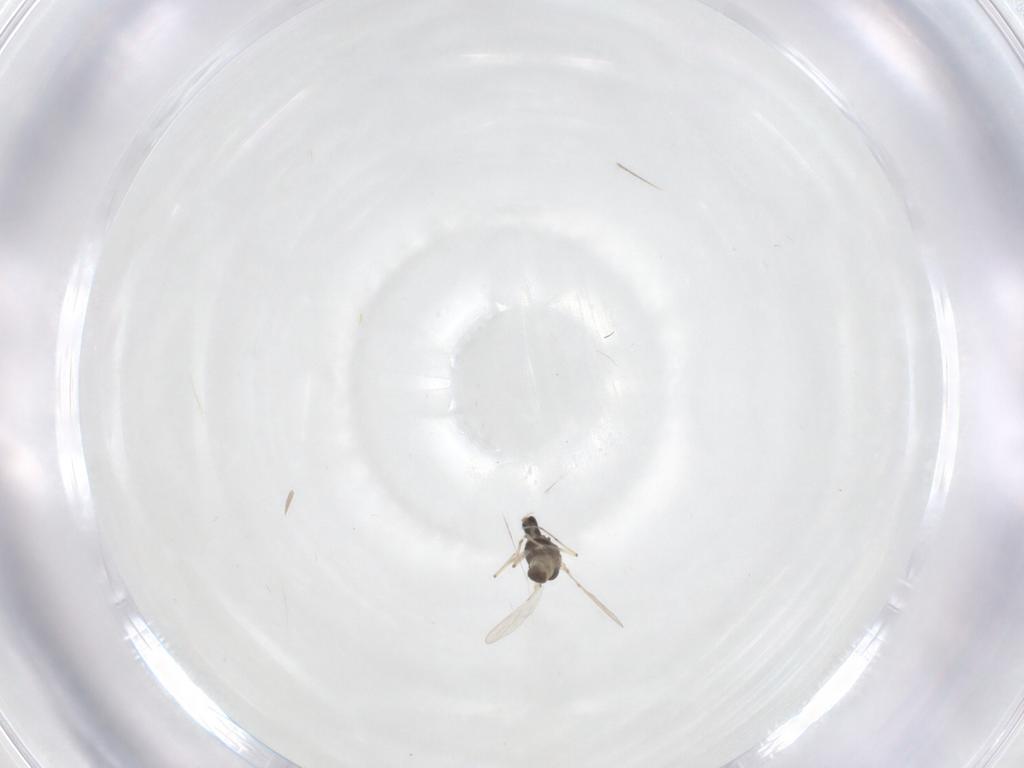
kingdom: Animalia
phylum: Arthropoda
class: Insecta
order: Diptera
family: Chironomidae
